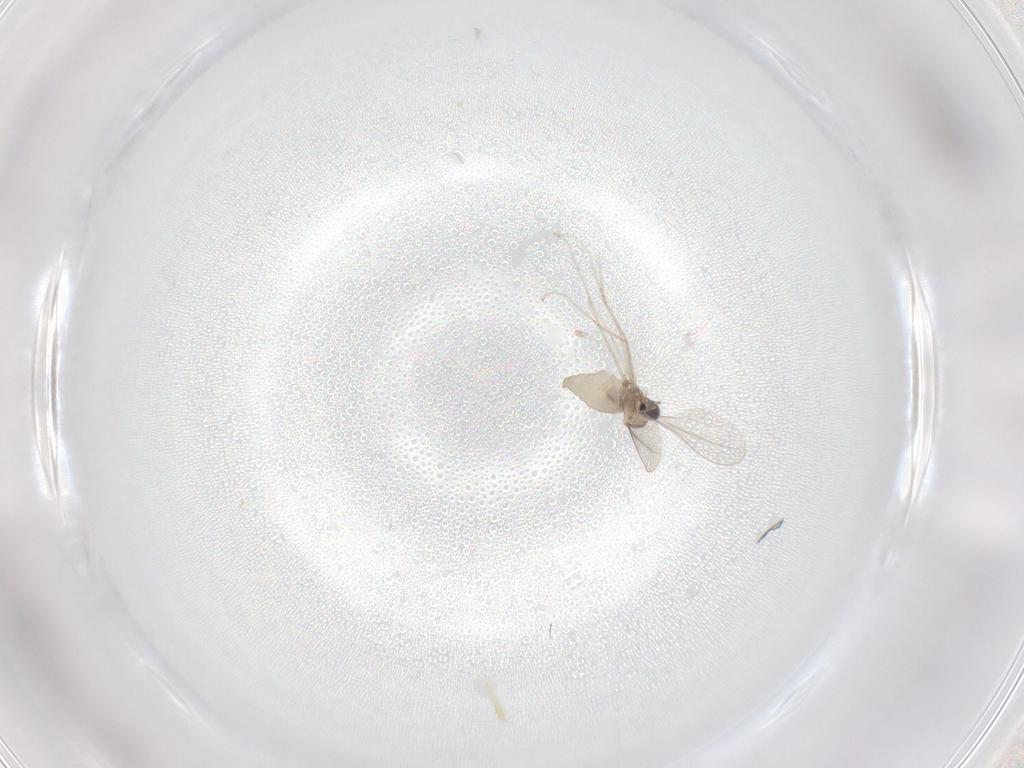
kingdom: Animalia
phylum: Arthropoda
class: Insecta
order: Diptera
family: Cecidomyiidae
